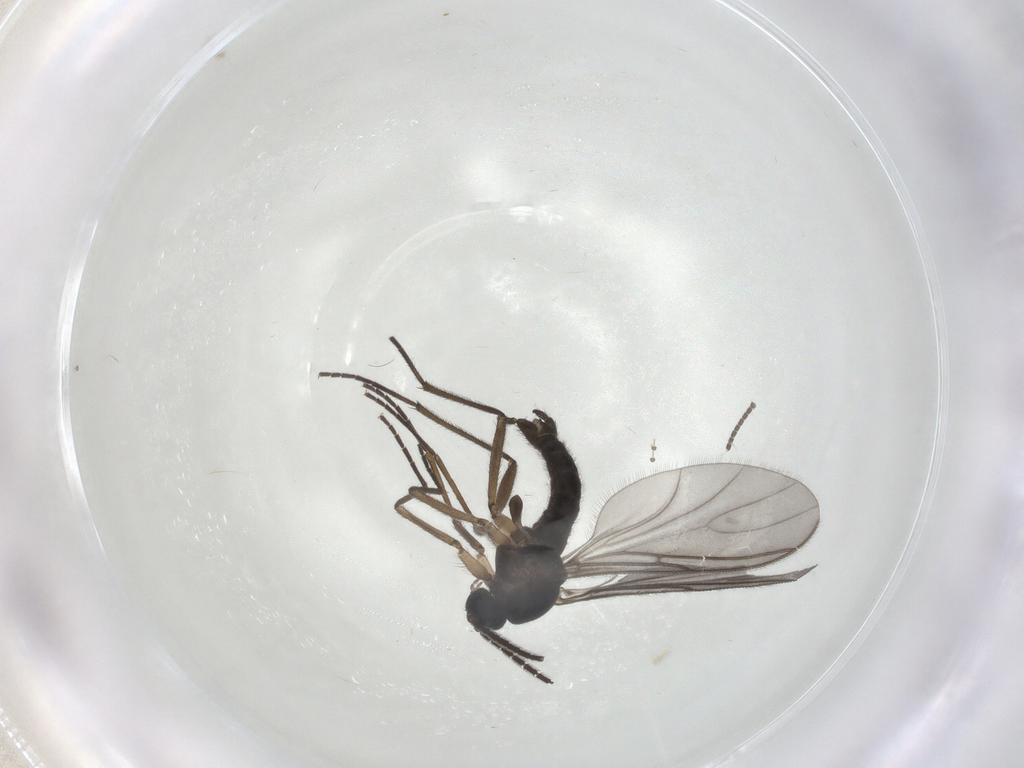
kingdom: Animalia
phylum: Arthropoda
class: Insecta
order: Diptera
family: Sciaridae
